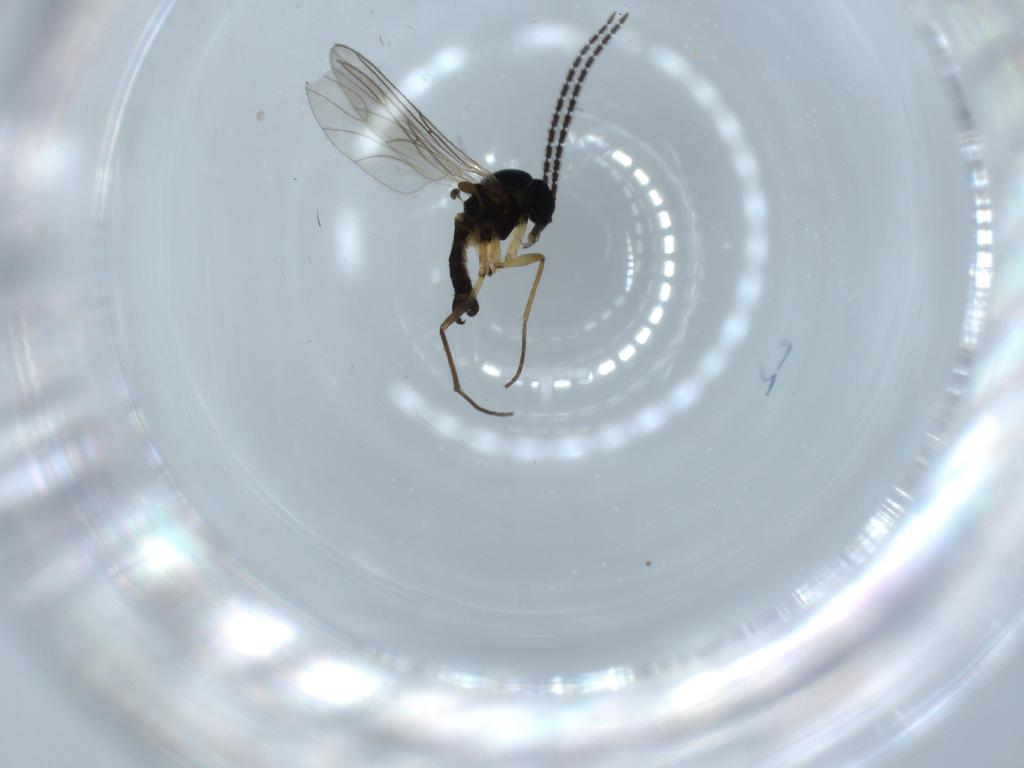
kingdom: Animalia
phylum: Arthropoda
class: Insecta
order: Diptera
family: Sciaridae
